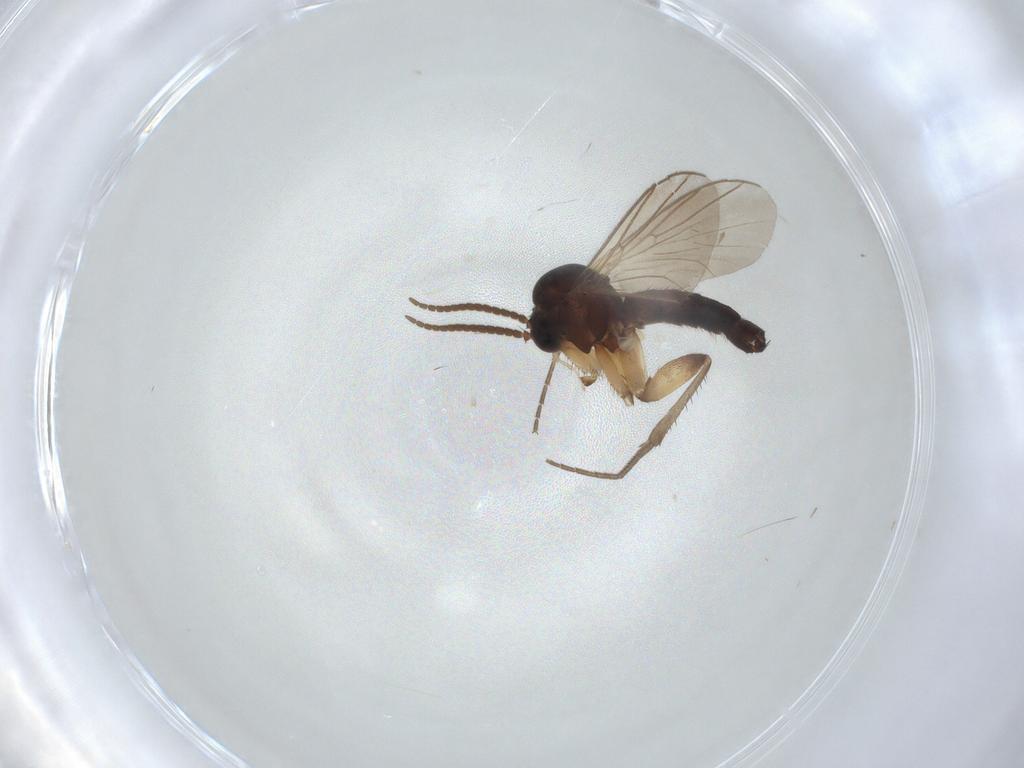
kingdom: Animalia
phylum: Arthropoda
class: Insecta
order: Diptera
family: Mycetophilidae
